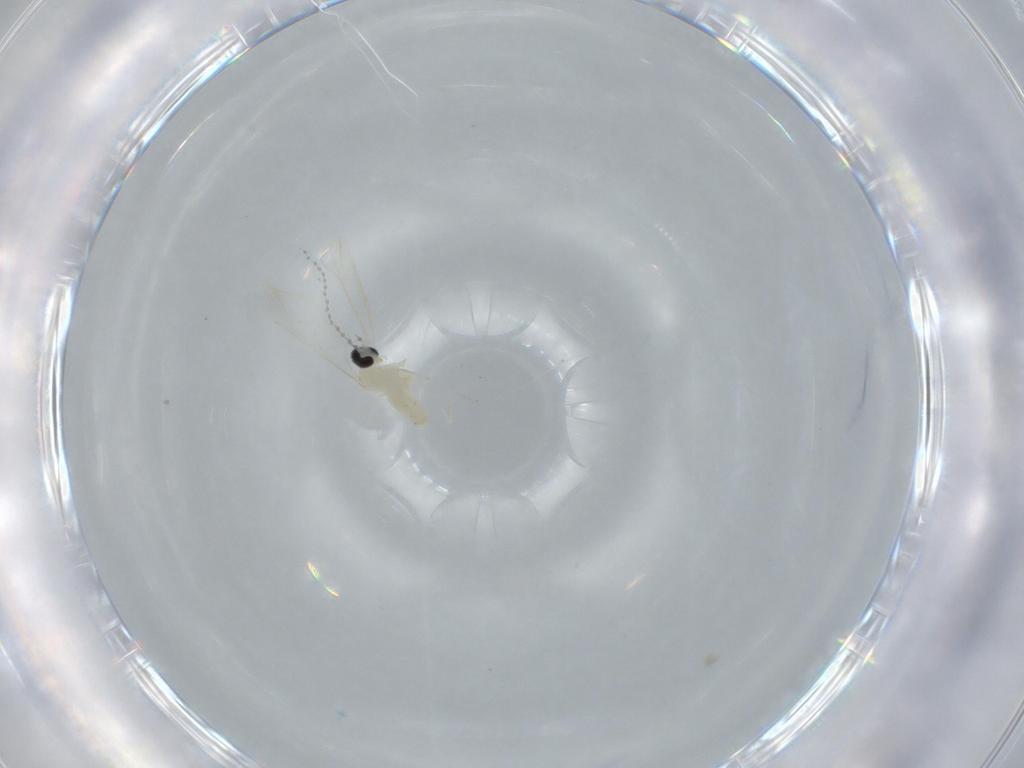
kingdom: Animalia
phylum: Arthropoda
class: Insecta
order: Diptera
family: Cecidomyiidae
